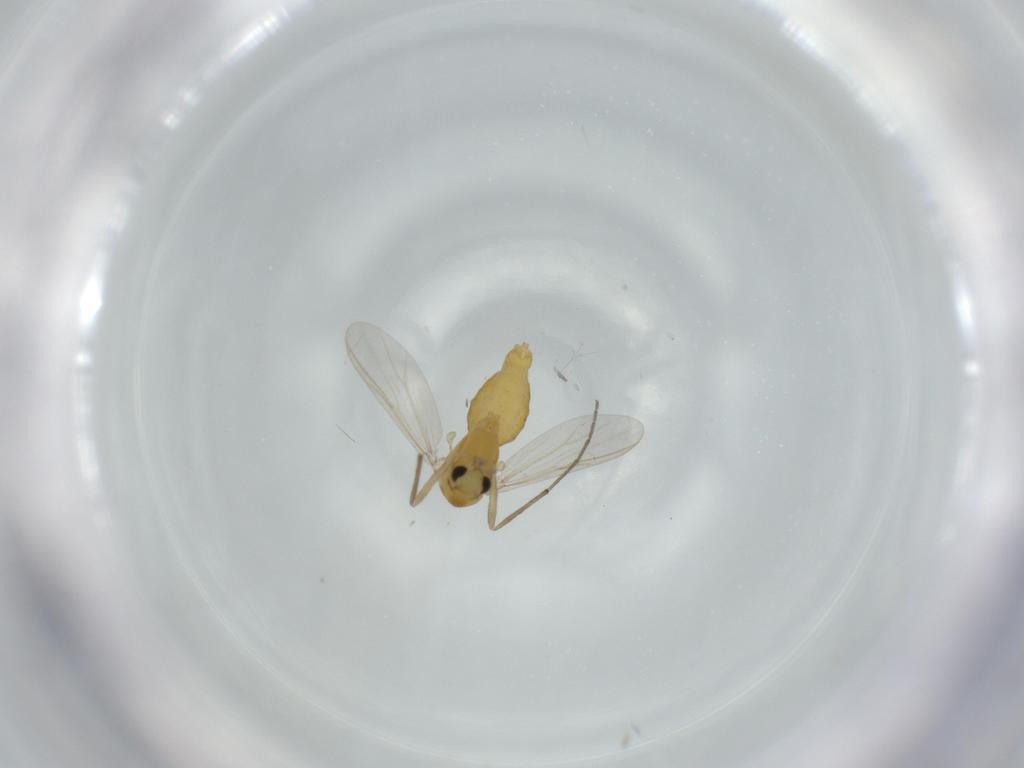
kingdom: Animalia
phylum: Arthropoda
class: Insecta
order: Diptera
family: Chironomidae
